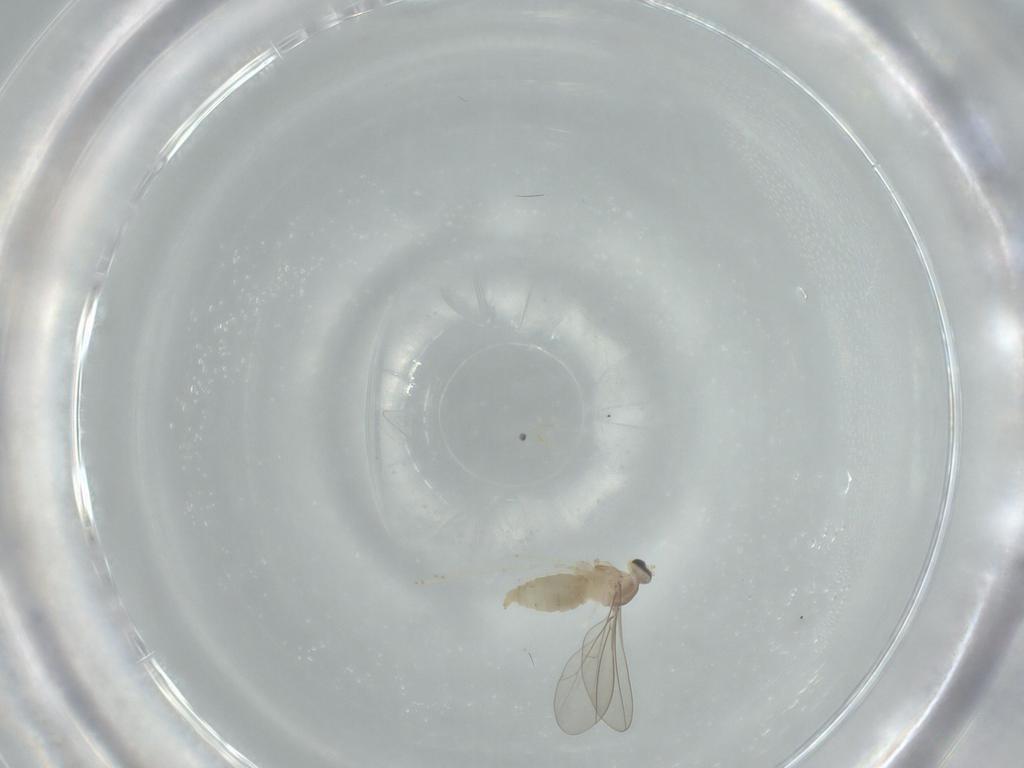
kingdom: Animalia
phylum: Arthropoda
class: Insecta
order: Diptera
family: Cecidomyiidae
